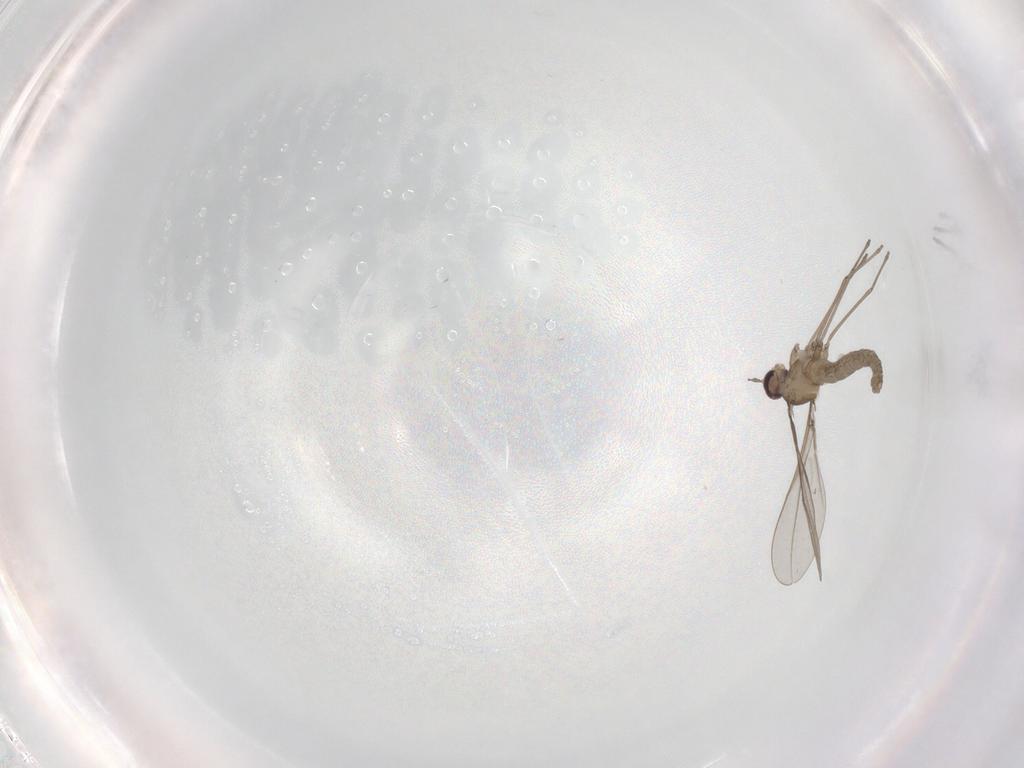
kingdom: Animalia
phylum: Arthropoda
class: Insecta
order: Diptera
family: Cecidomyiidae
